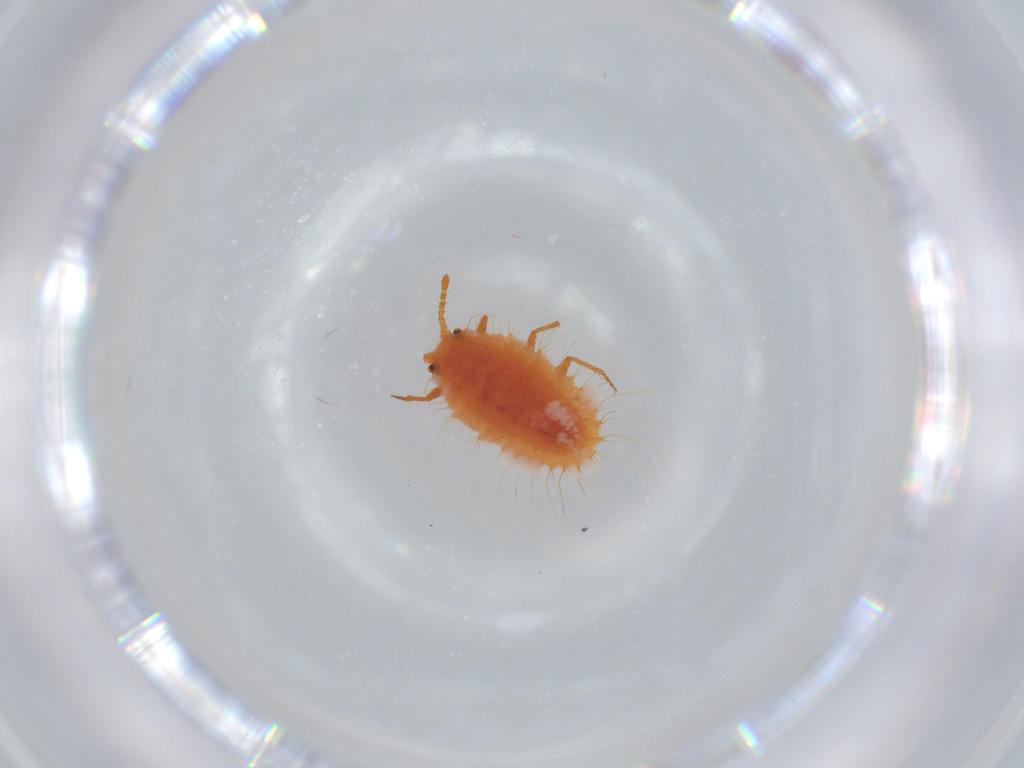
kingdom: Animalia
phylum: Arthropoda
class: Insecta
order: Hemiptera
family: Coccoidea_incertae_sedis
